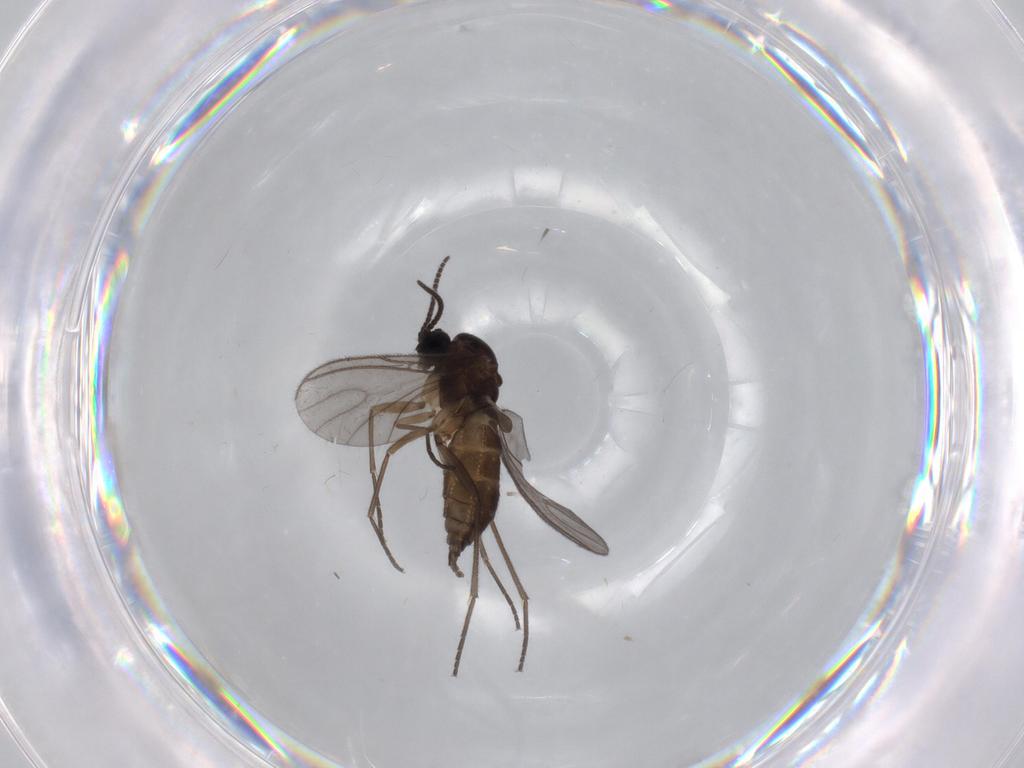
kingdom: Animalia
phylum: Arthropoda
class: Insecta
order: Diptera
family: Sciaridae
